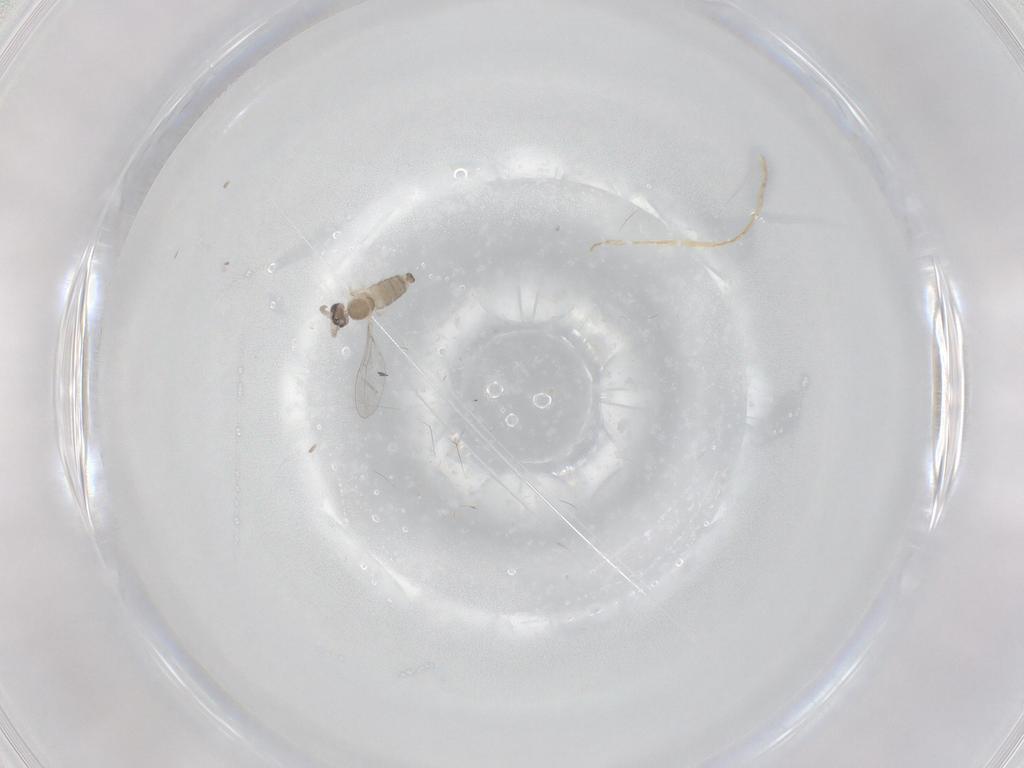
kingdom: Animalia
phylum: Arthropoda
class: Insecta
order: Diptera
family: Cecidomyiidae
